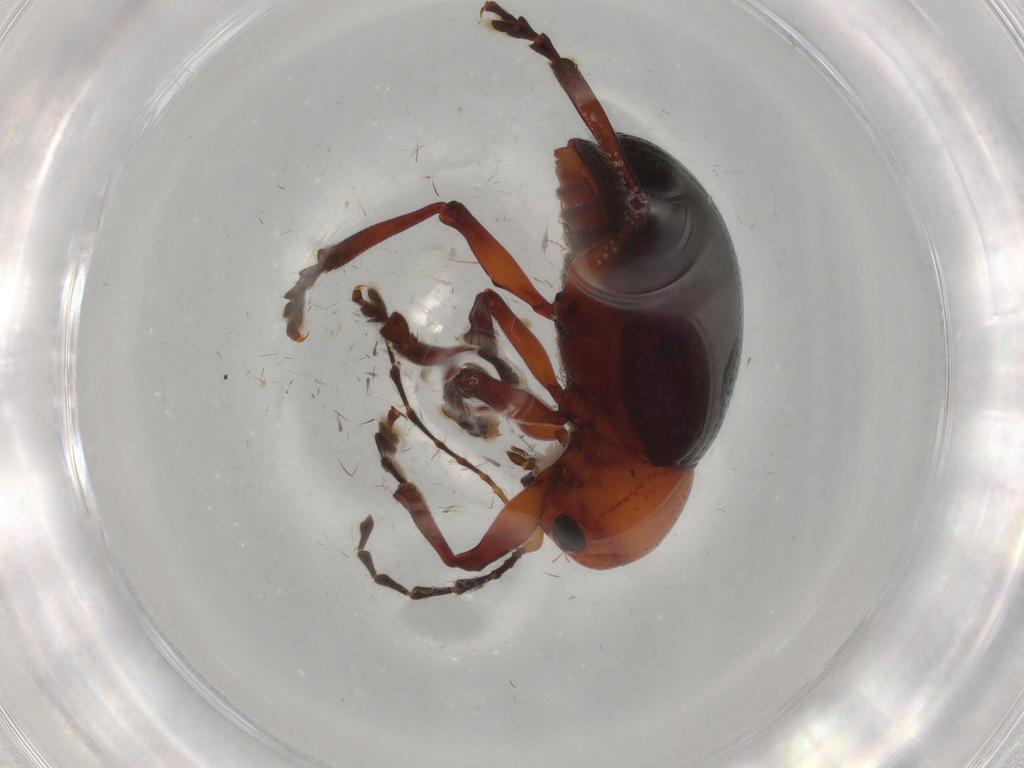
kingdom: Animalia
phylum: Arthropoda
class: Insecta
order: Coleoptera
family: Chrysomelidae
